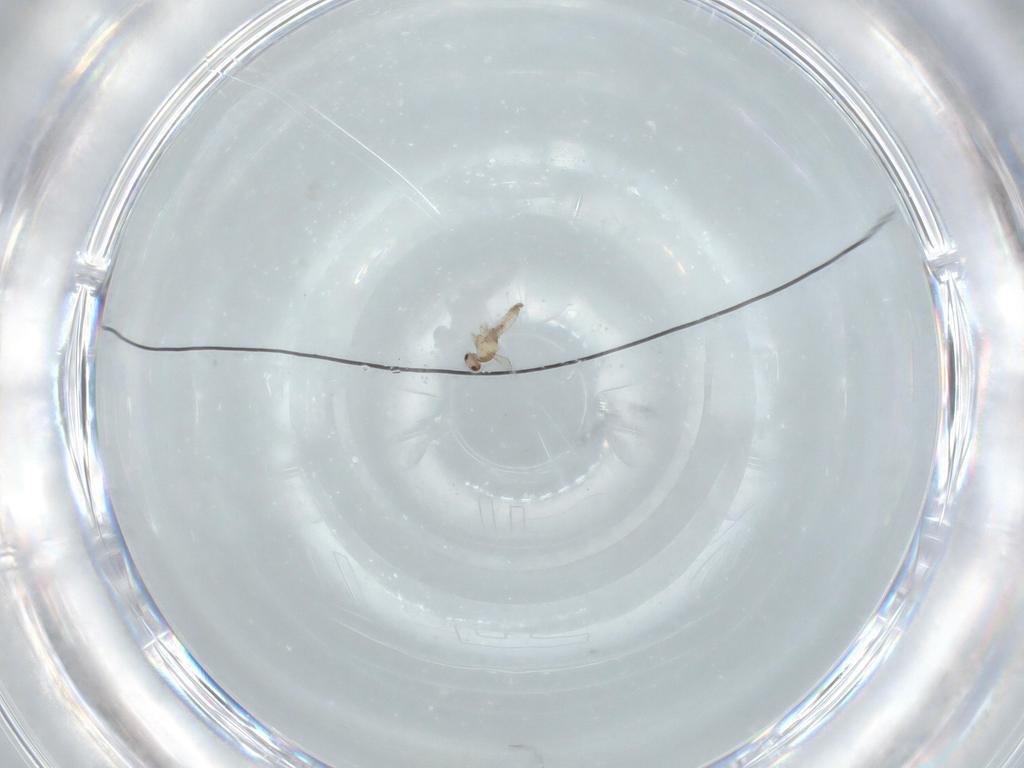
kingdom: Animalia
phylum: Arthropoda
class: Insecta
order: Diptera
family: Cecidomyiidae
